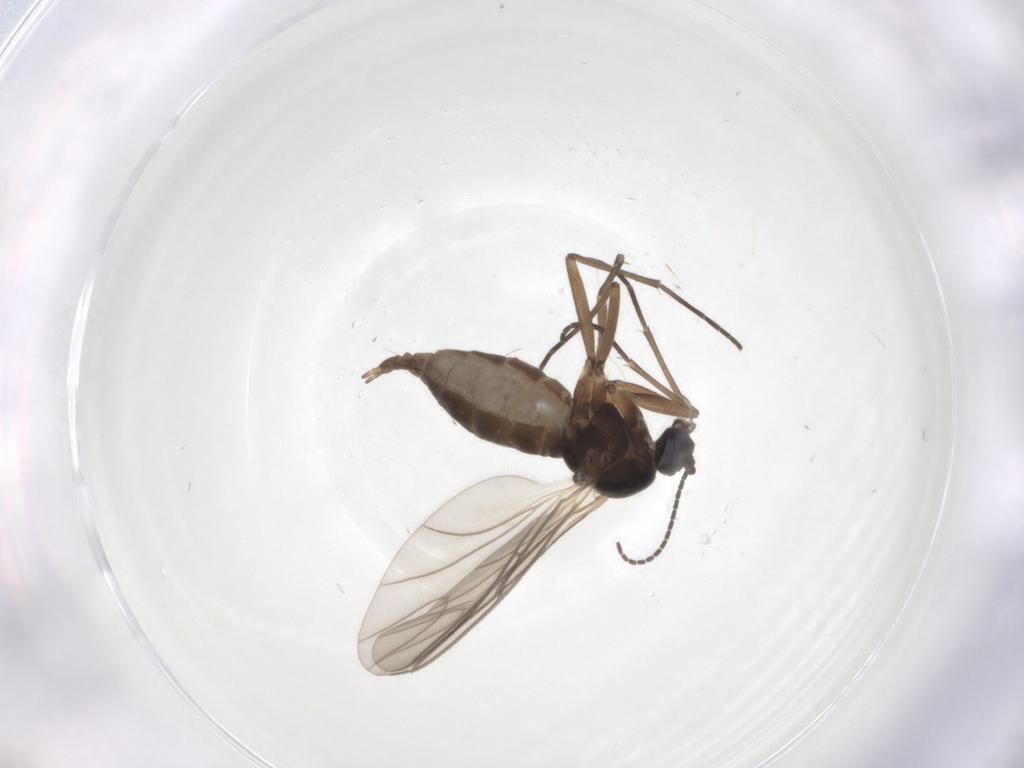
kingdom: Animalia
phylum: Arthropoda
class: Insecta
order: Diptera
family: Sciaridae
